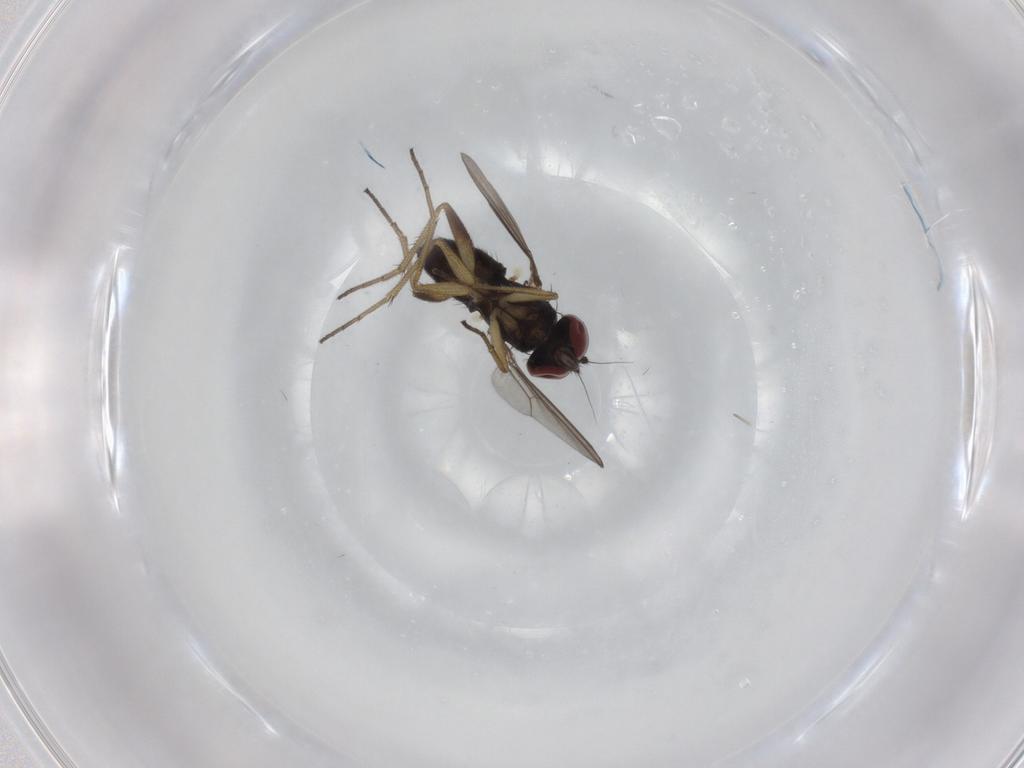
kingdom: Animalia
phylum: Arthropoda
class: Insecta
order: Diptera
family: Dolichopodidae
